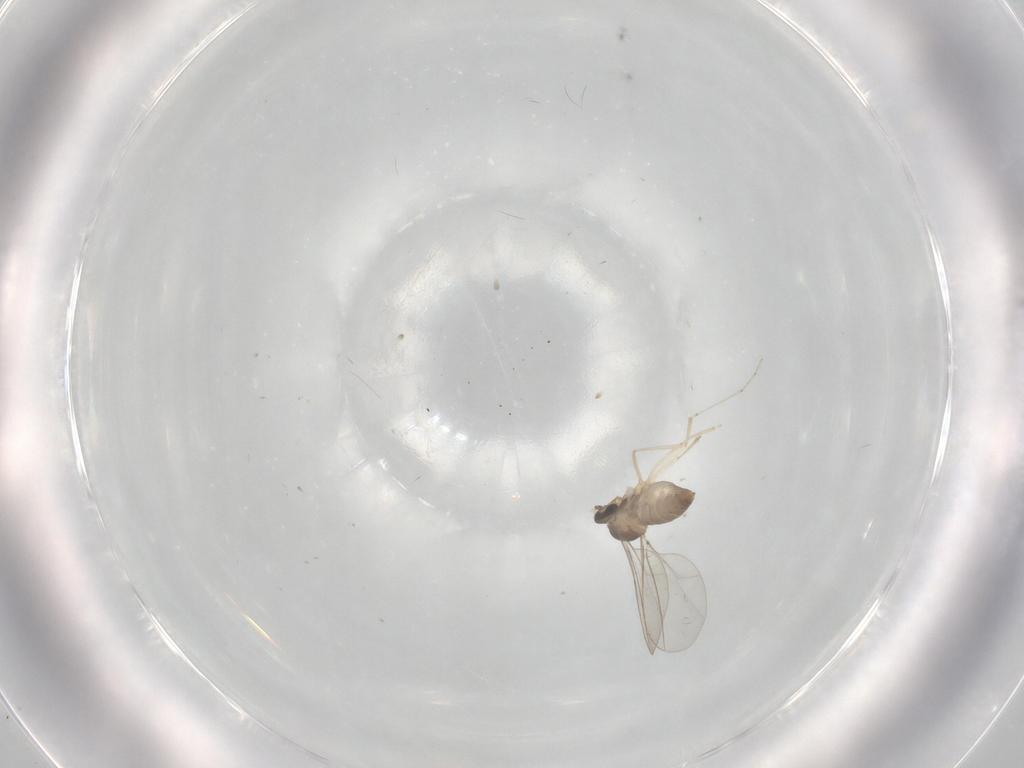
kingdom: Animalia
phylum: Arthropoda
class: Insecta
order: Diptera
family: Cecidomyiidae
